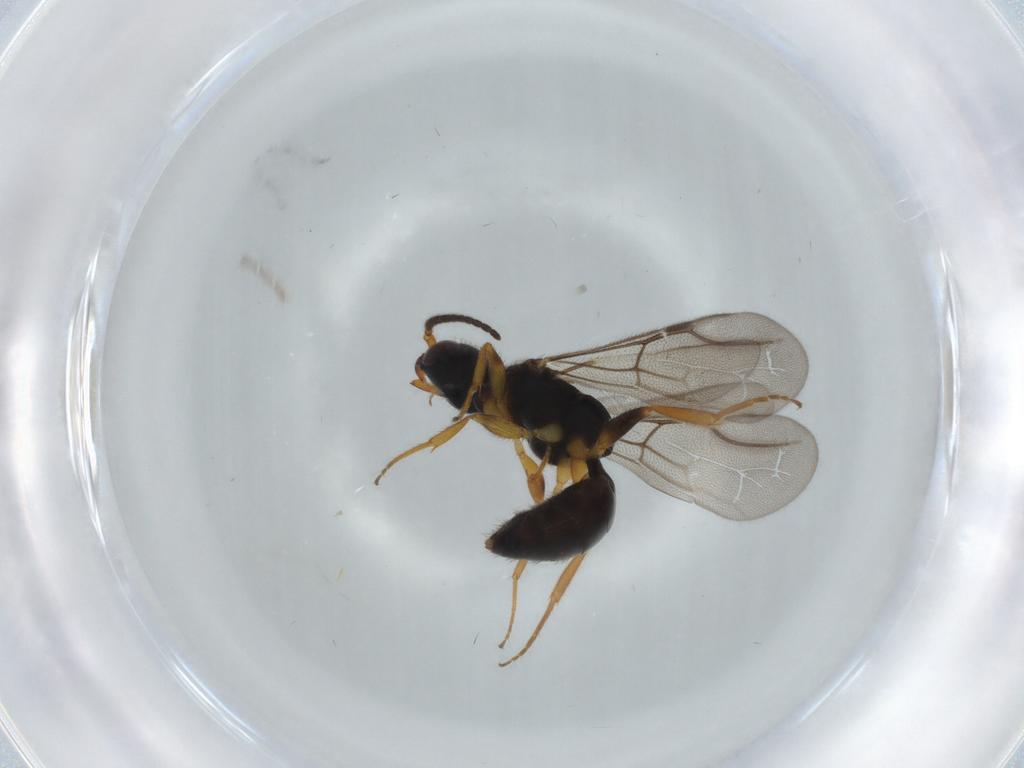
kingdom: Animalia
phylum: Arthropoda
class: Insecta
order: Hymenoptera
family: Bethylidae
